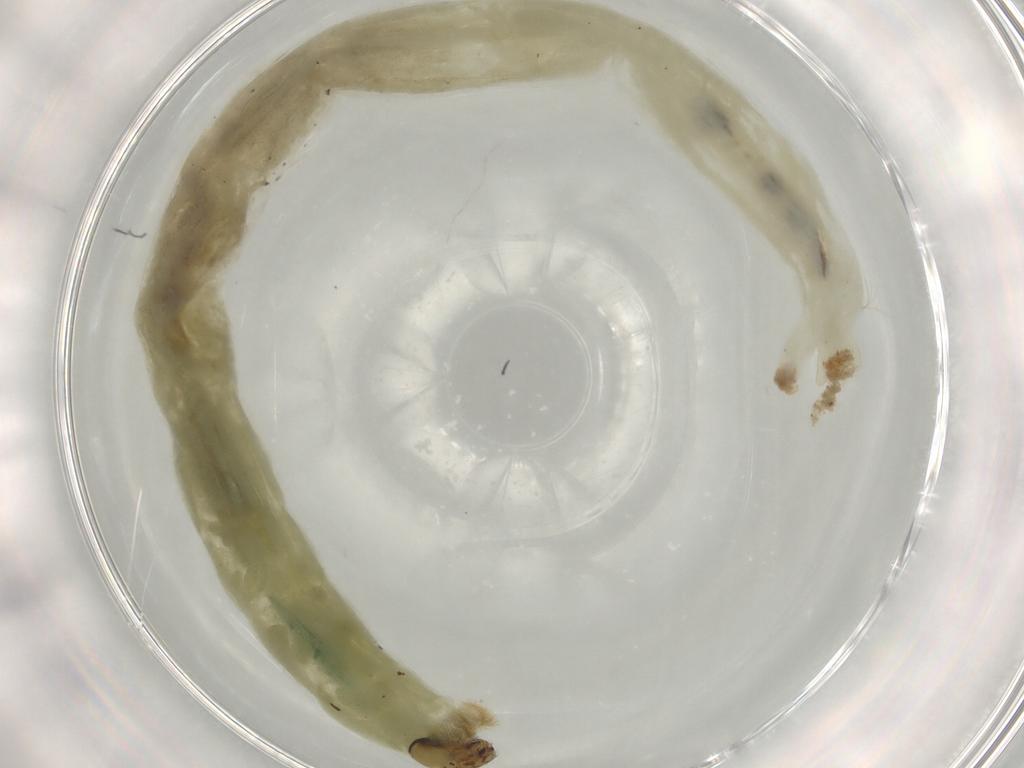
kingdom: Animalia
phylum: Arthropoda
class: Insecta
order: Diptera
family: Chironomidae
